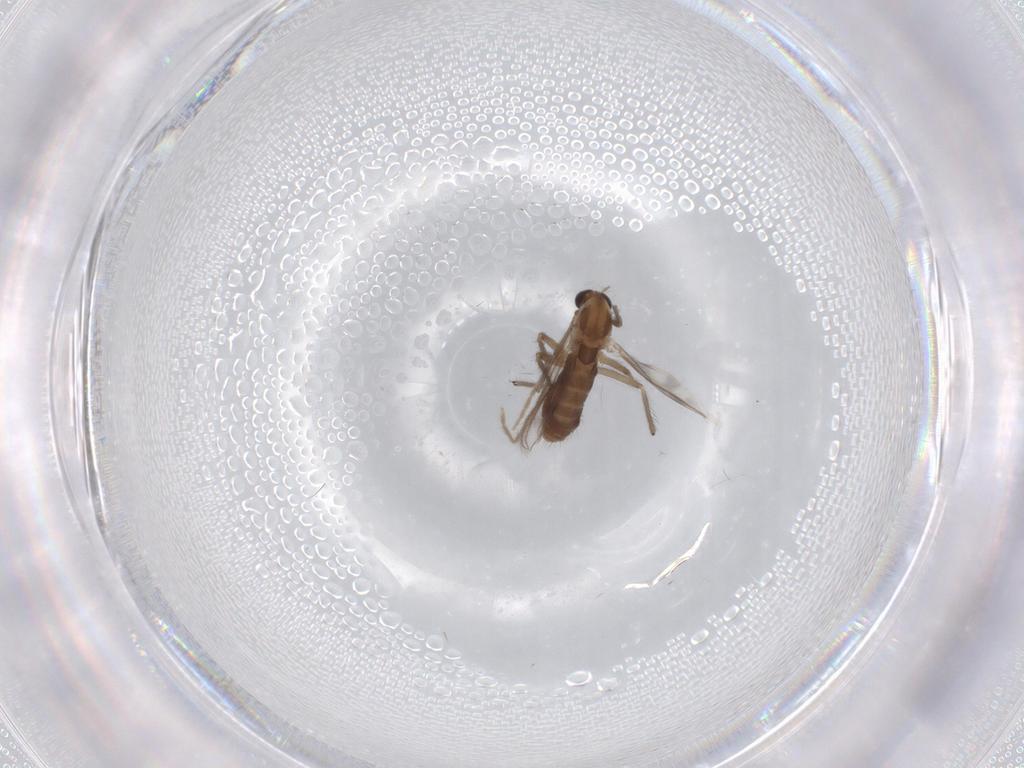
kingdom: Animalia
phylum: Arthropoda
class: Insecta
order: Diptera
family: Chironomidae
